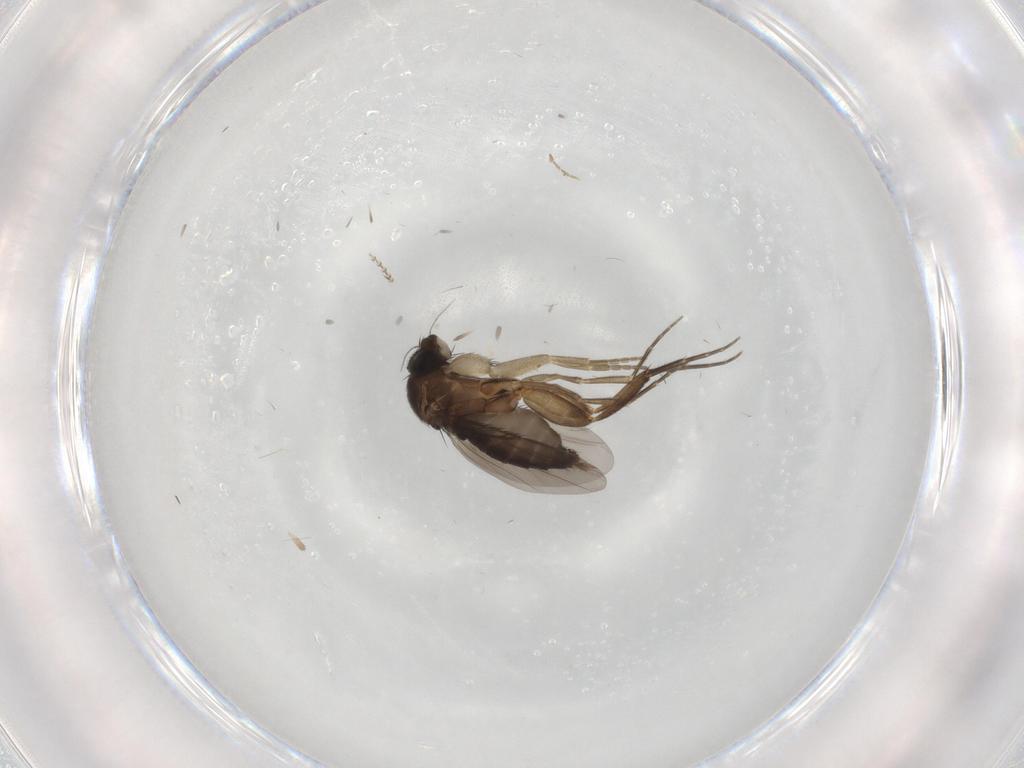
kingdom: Animalia
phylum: Arthropoda
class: Insecta
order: Diptera
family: Phoridae
